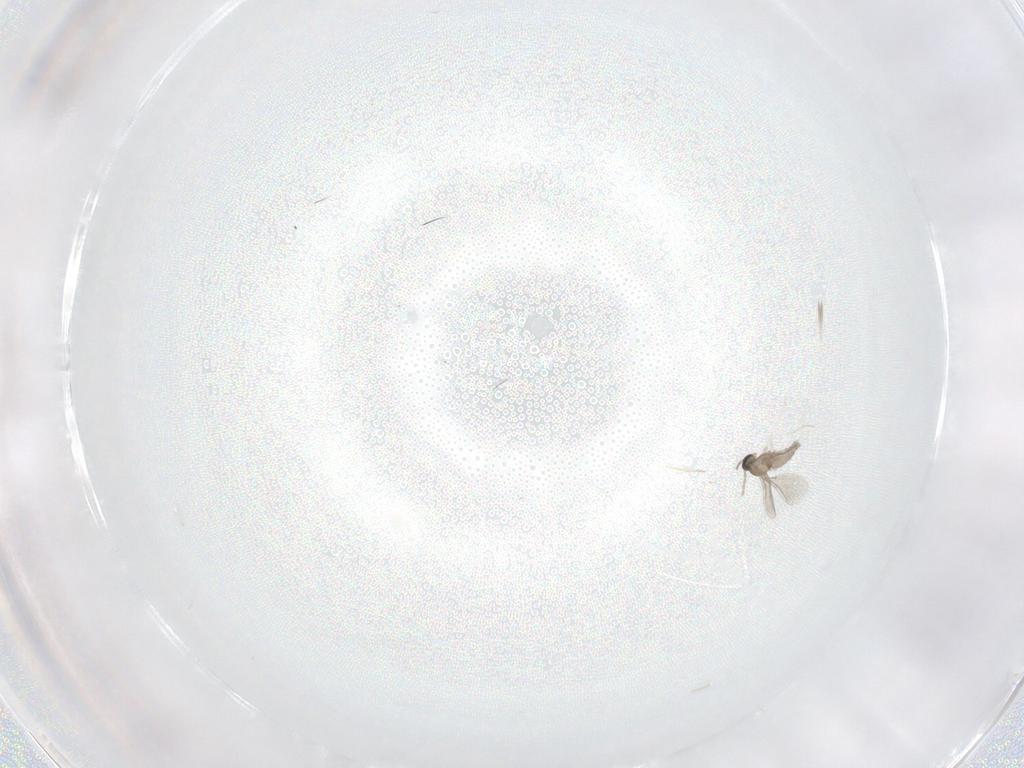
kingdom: Animalia
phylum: Arthropoda
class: Insecta
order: Diptera
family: Cecidomyiidae
